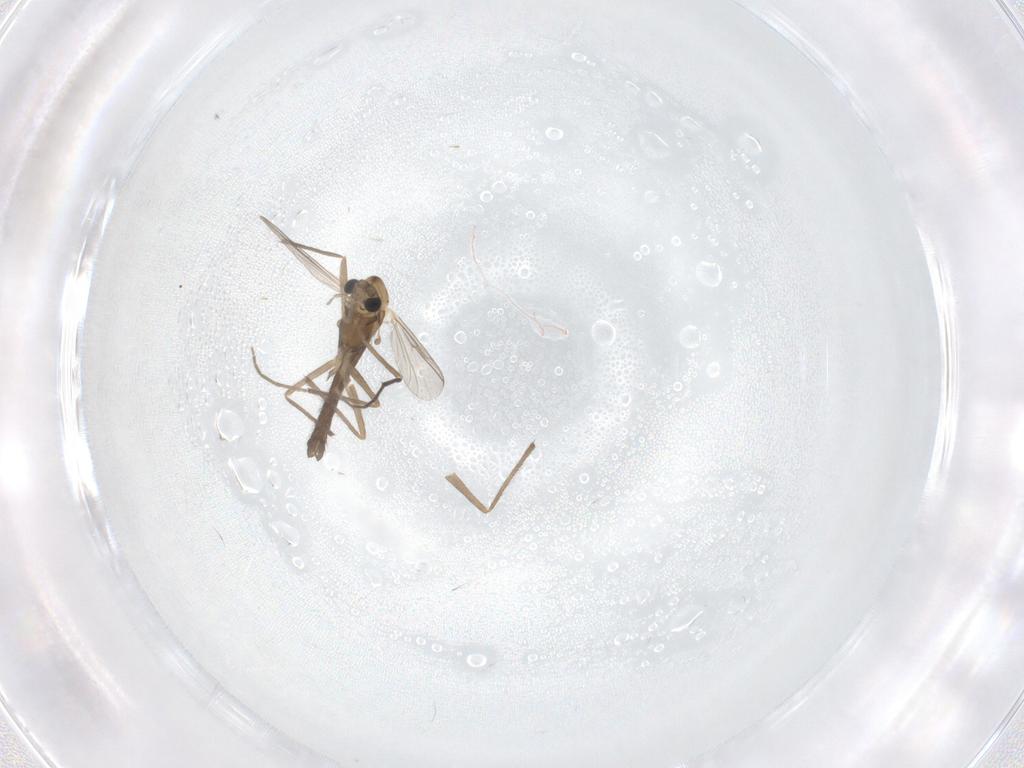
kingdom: Animalia
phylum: Arthropoda
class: Insecta
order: Diptera
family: Chironomidae
